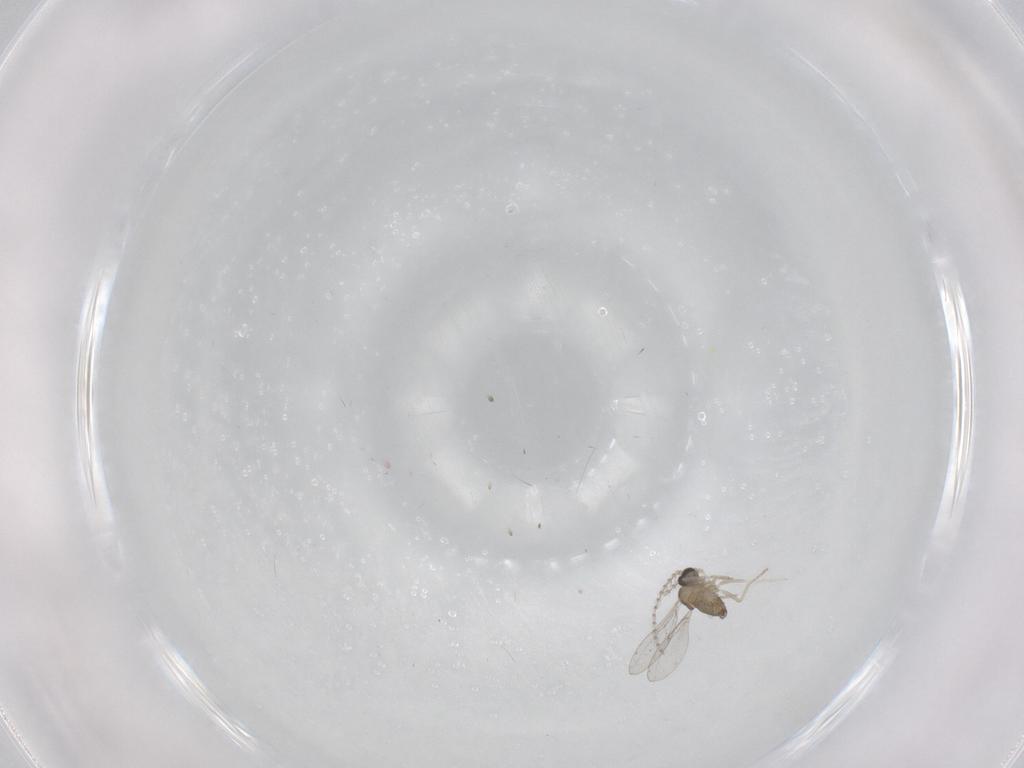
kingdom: Animalia
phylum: Arthropoda
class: Insecta
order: Diptera
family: Cecidomyiidae
